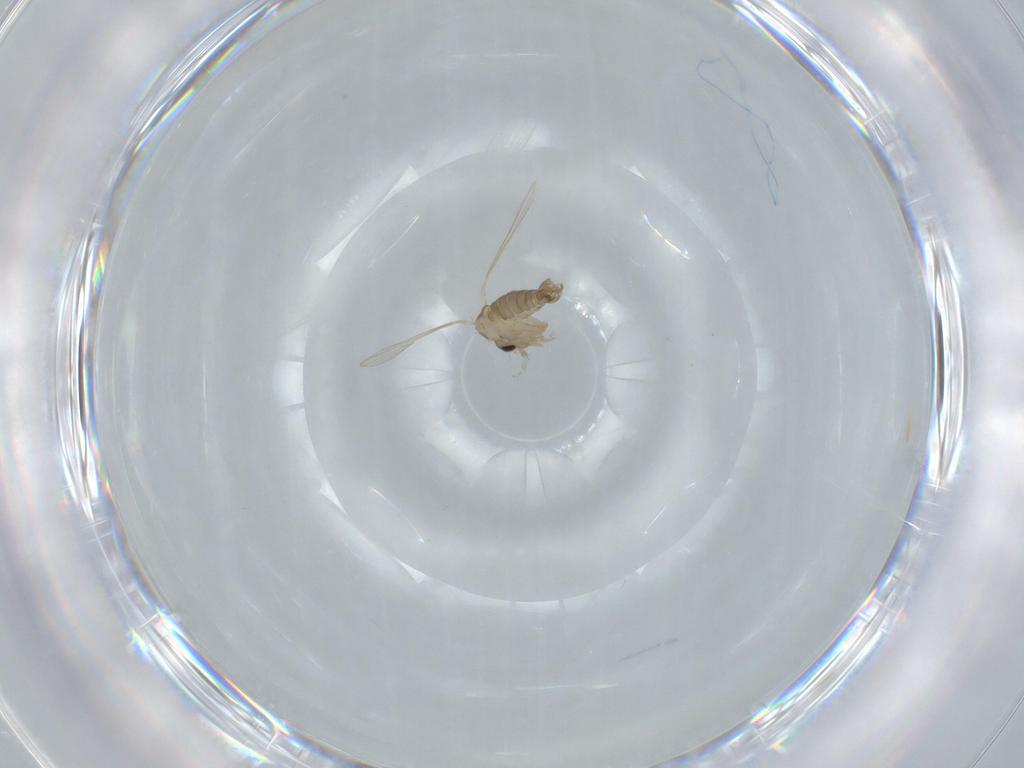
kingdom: Animalia
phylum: Arthropoda
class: Insecta
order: Diptera
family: Psychodidae
